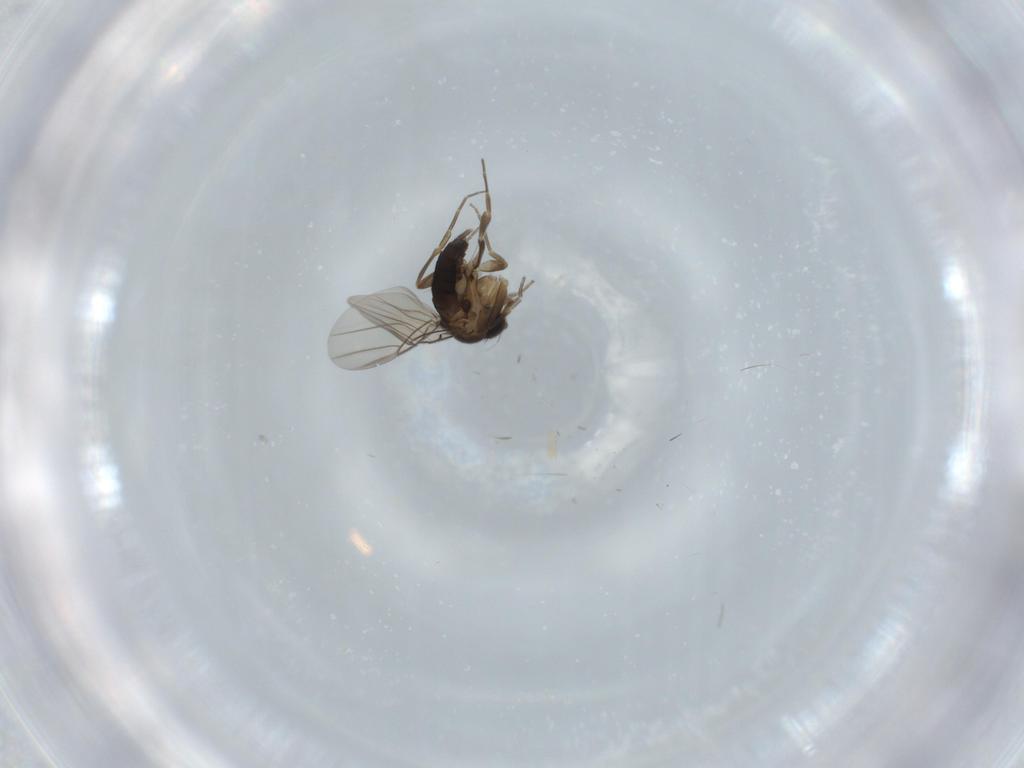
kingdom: Animalia
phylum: Arthropoda
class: Insecta
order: Diptera
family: Phoridae
